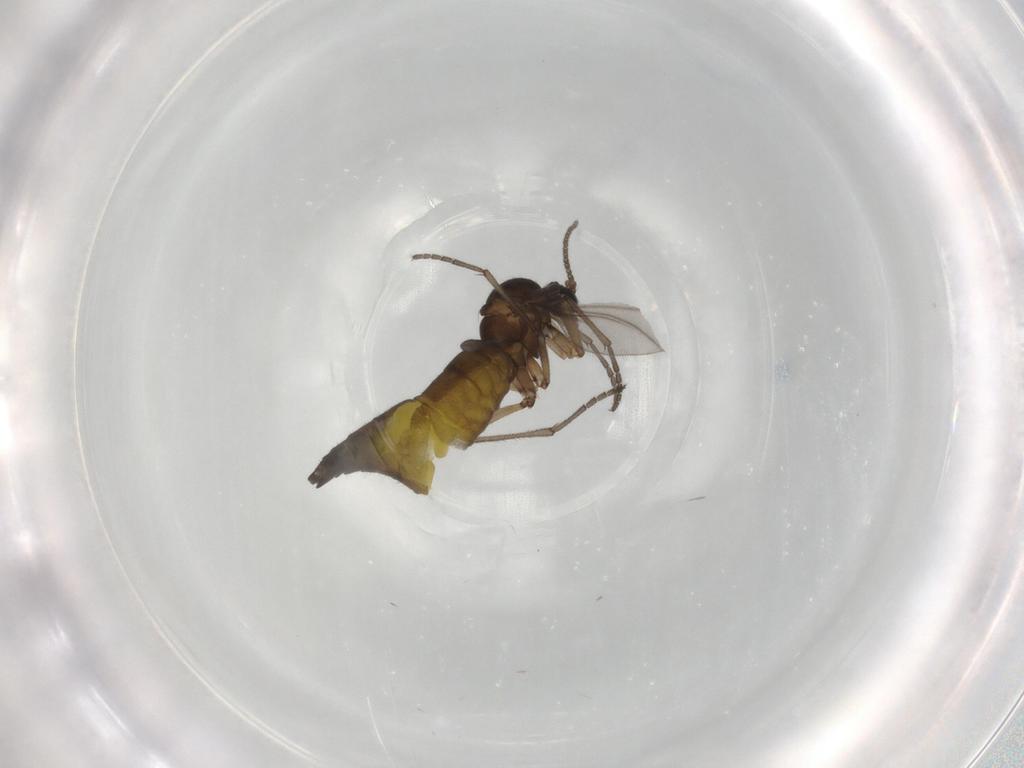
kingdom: Animalia
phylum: Arthropoda
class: Insecta
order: Diptera
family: Sciaridae
